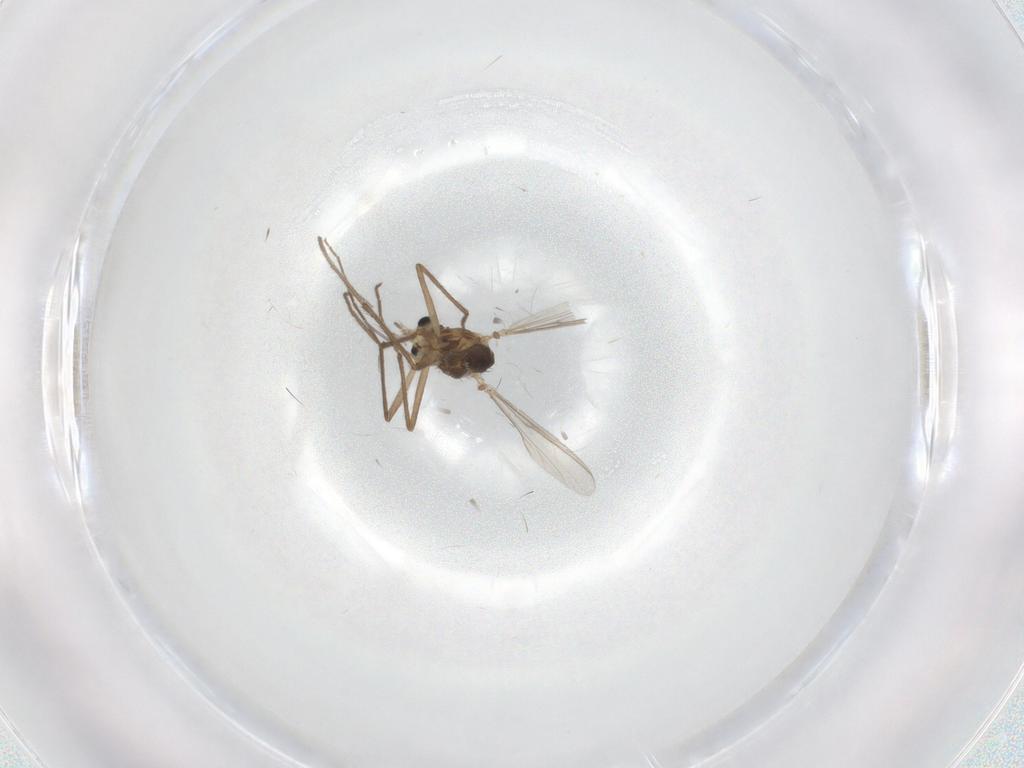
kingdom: Animalia
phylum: Arthropoda
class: Insecta
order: Diptera
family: Chironomidae
